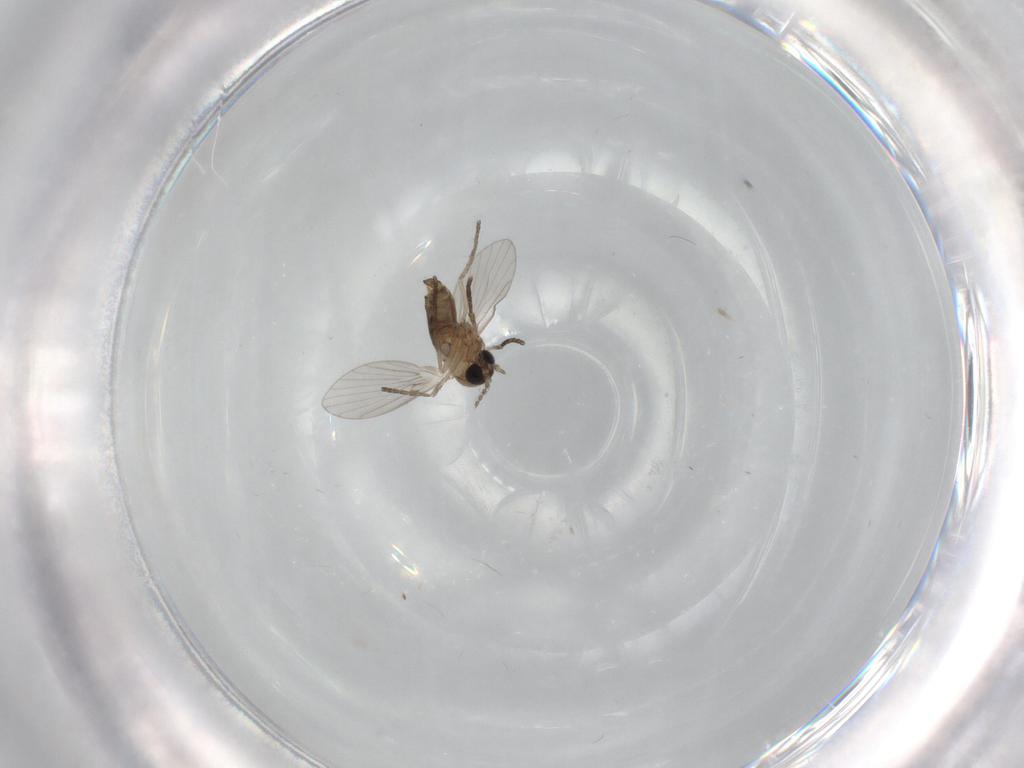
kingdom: Animalia
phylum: Arthropoda
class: Insecta
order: Diptera
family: Psychodidae
